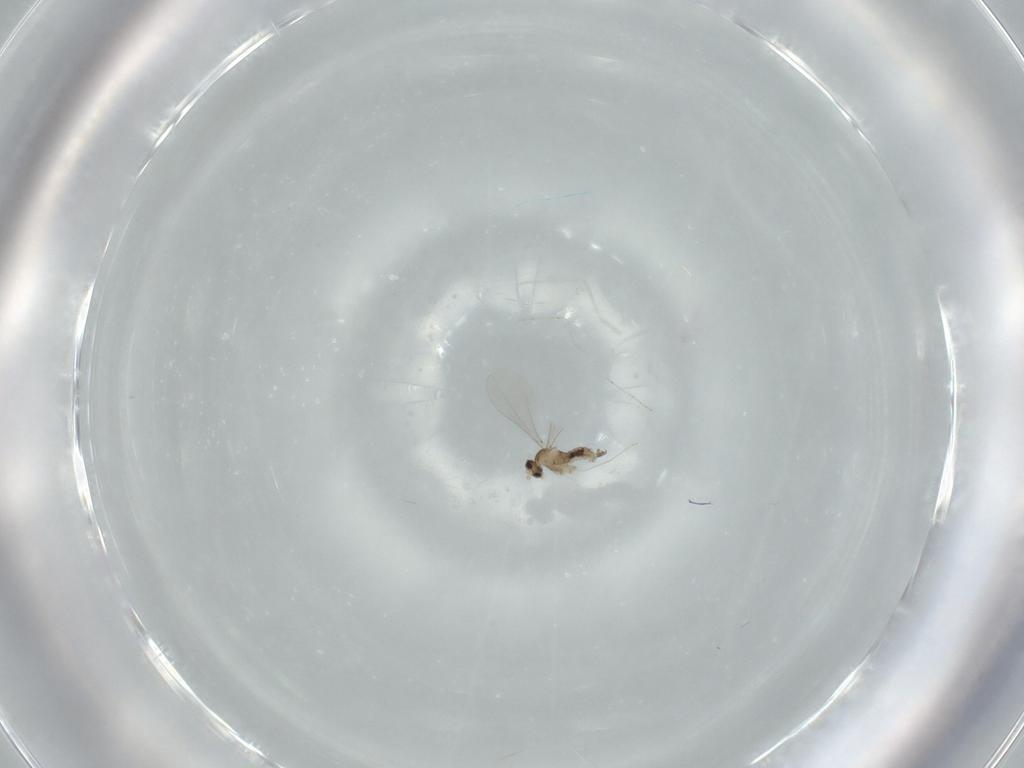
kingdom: Animalia
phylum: Arthropoda
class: Insecta
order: Diptera
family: Cecidomyiidae
